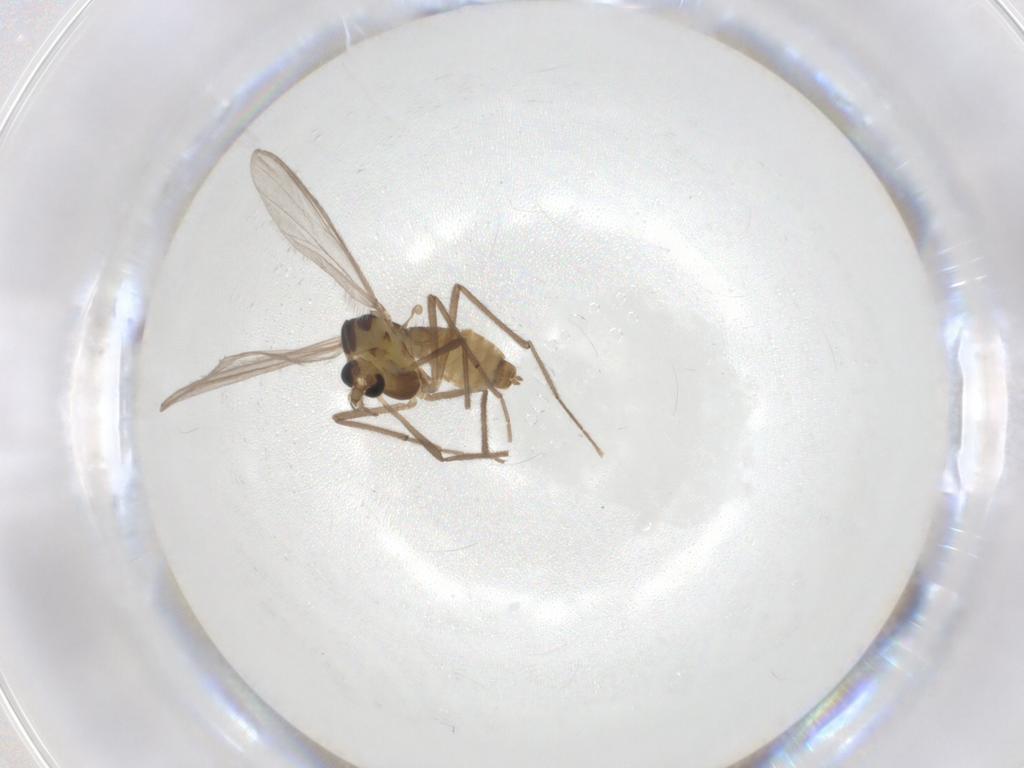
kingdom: Animalia
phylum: Arthropoda
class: Insecta
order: Diptera
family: Chironomidae
